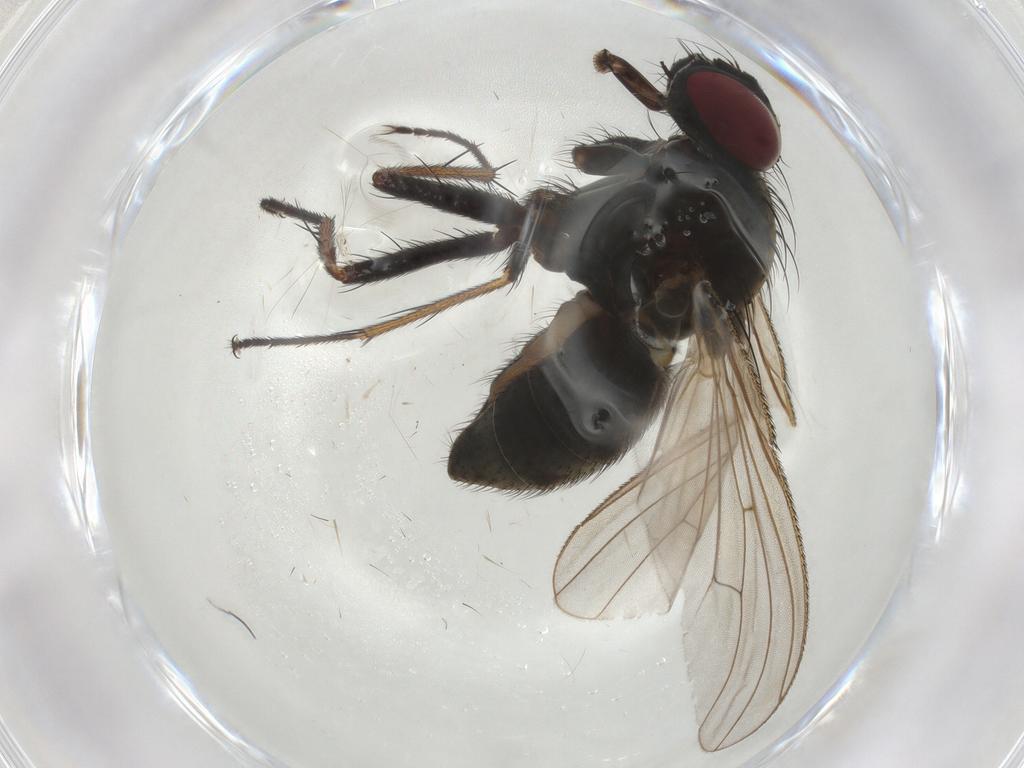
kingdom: Animalia
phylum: Arthropoda
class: Insecta
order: Diptera
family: Dolichopodidae
